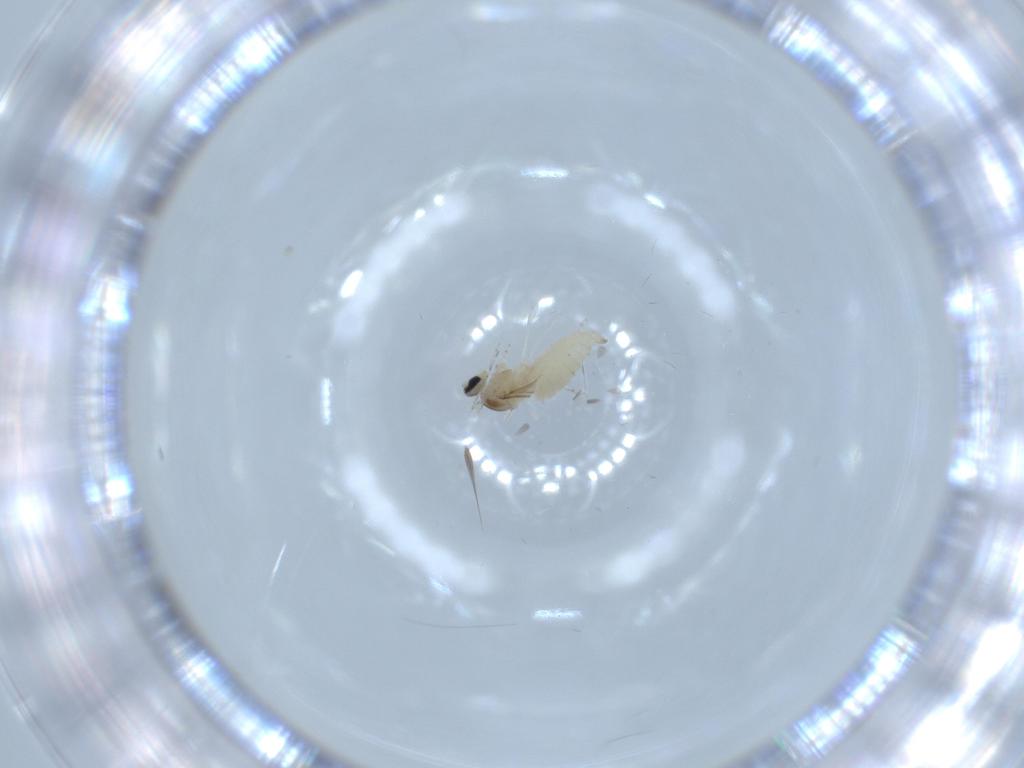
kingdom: Animalia
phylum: Arthropoda
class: Insecta
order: Diptera
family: Cecidomyiidae
